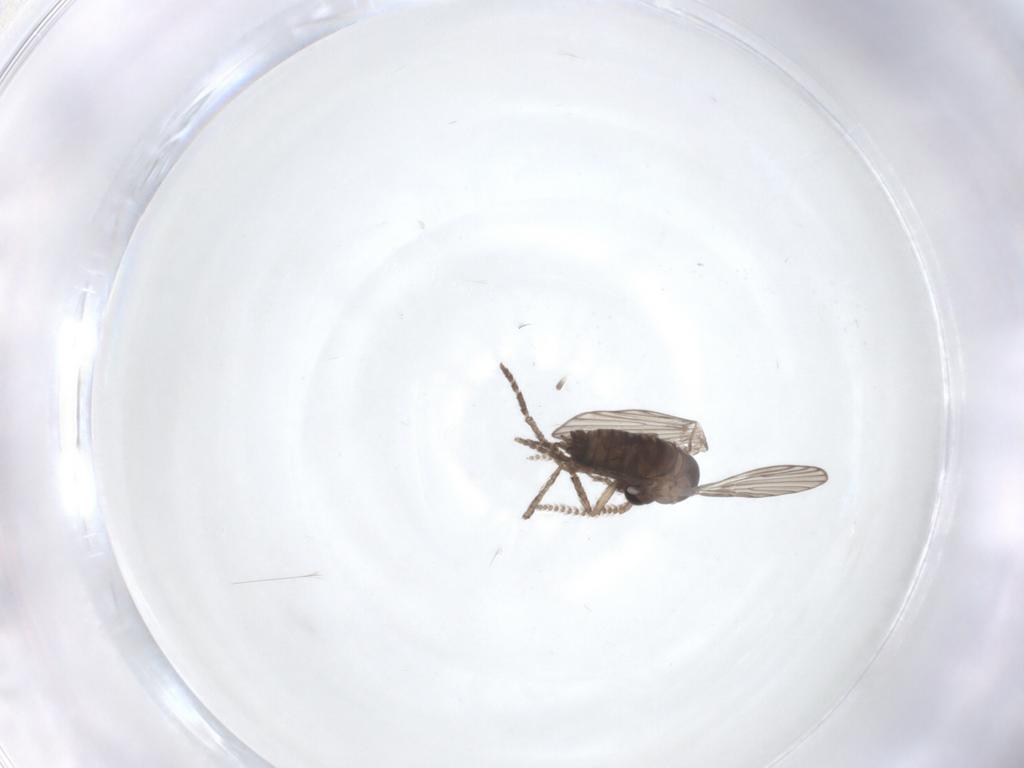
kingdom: Animalia
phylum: Arthropoda
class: Insecta
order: Diptera
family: Psychodidae
